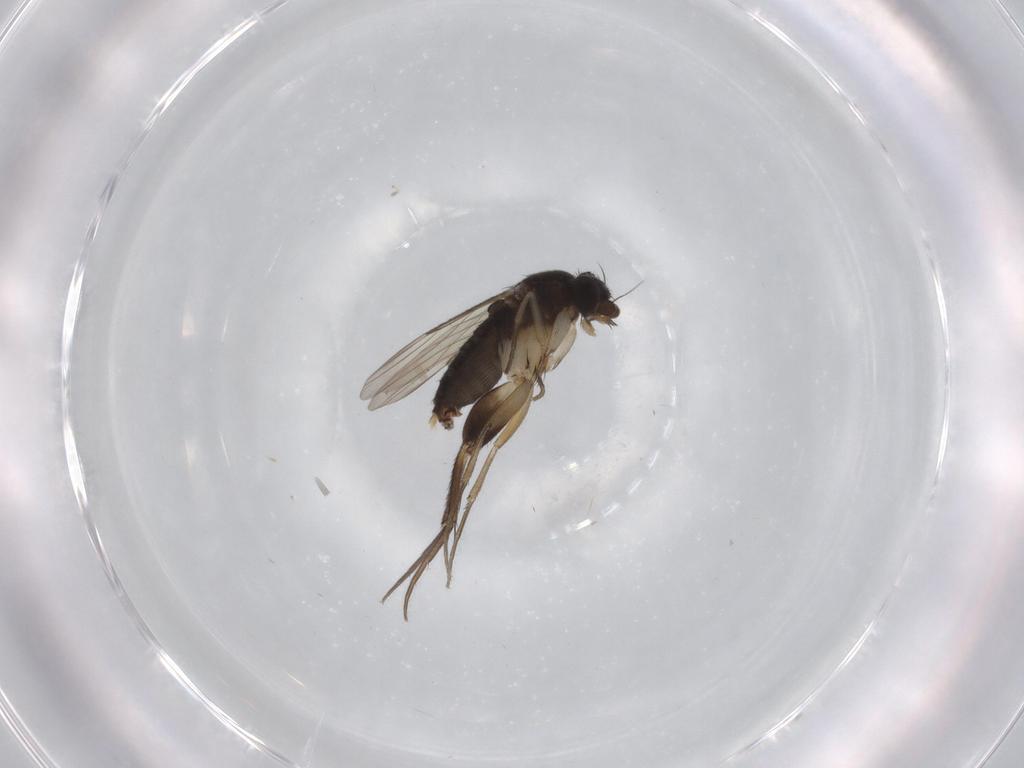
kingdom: Animalia
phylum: Arthropoda
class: Insecta
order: Diptera
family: Phoridae
